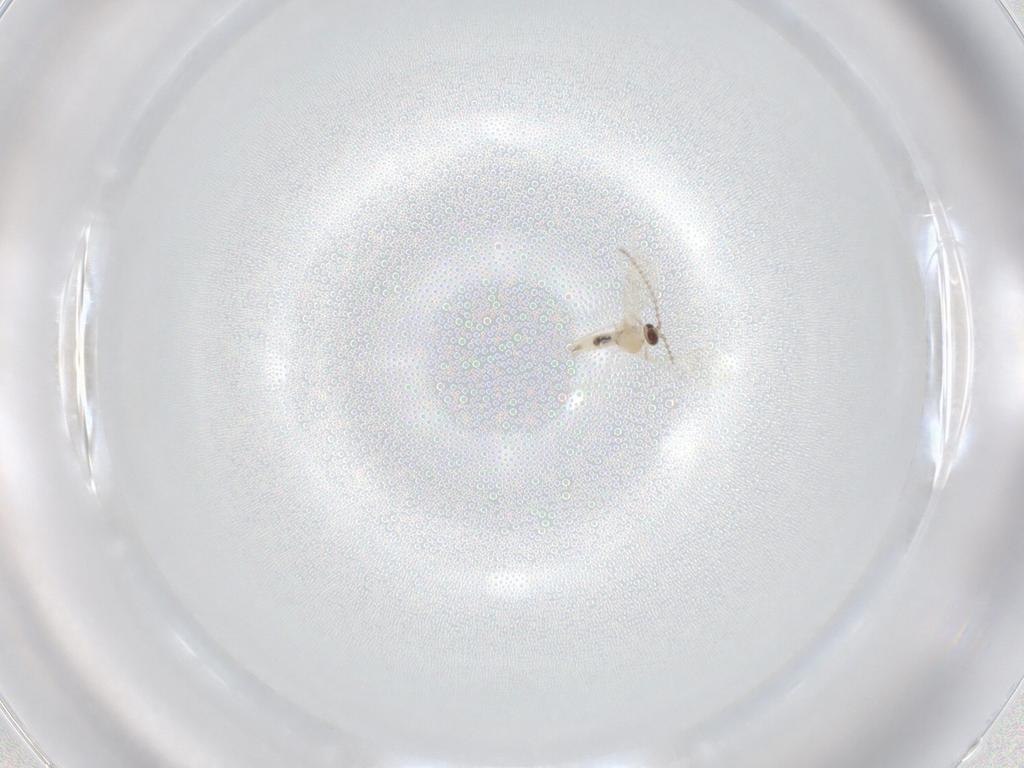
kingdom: Animalia
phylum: Arthropoda
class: Insecta
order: Diptera
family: Cecidomyiidae
